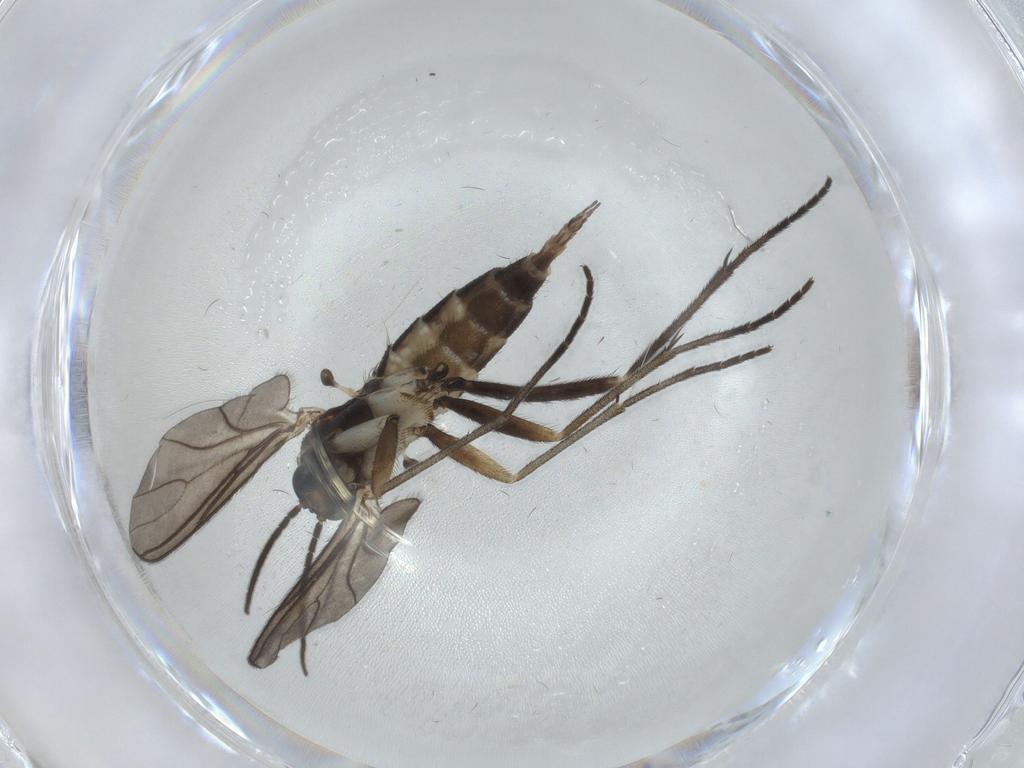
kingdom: Animalia
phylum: Arthropoda
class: Insecta
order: Diptera
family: Sciaridae
